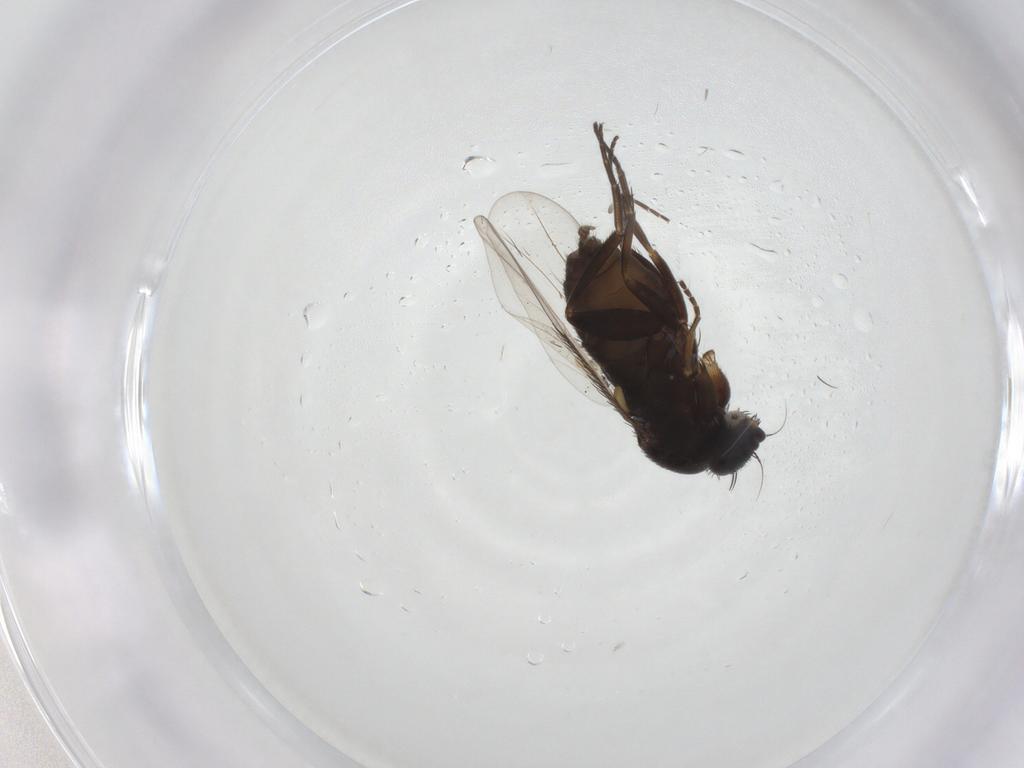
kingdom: Animalia
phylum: Arthropoda
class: Insecta
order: Diptera
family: Phoridae
